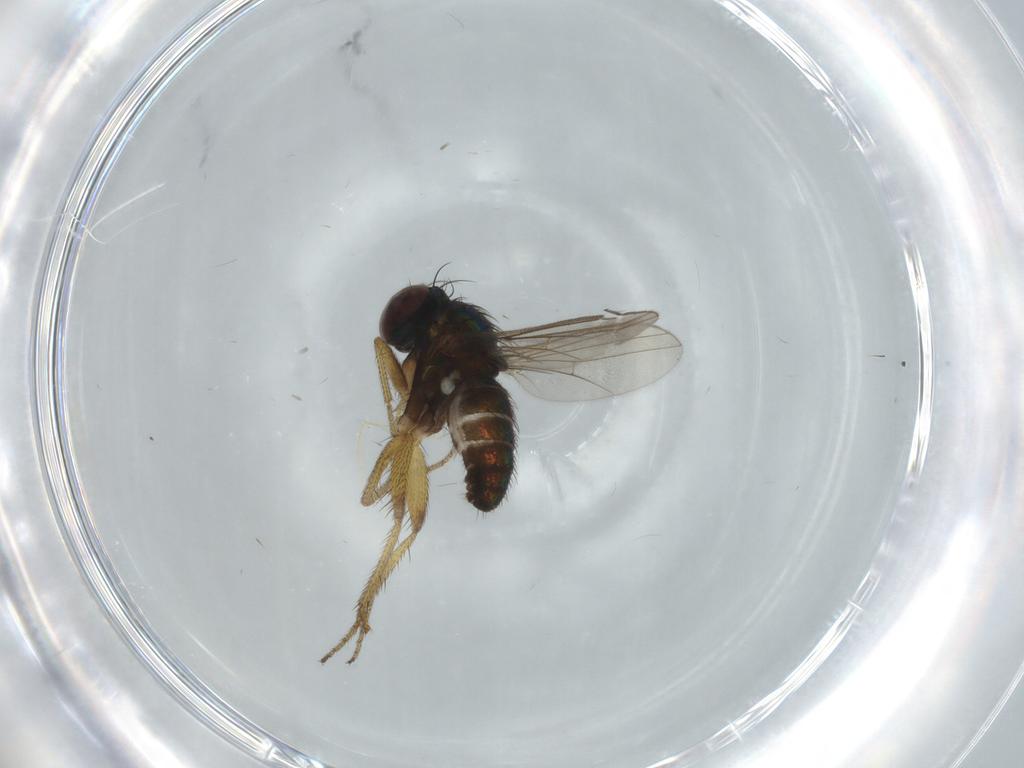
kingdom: Animalia
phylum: Arthropoda
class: Insecta
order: Diptera
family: Dolichopodidae
